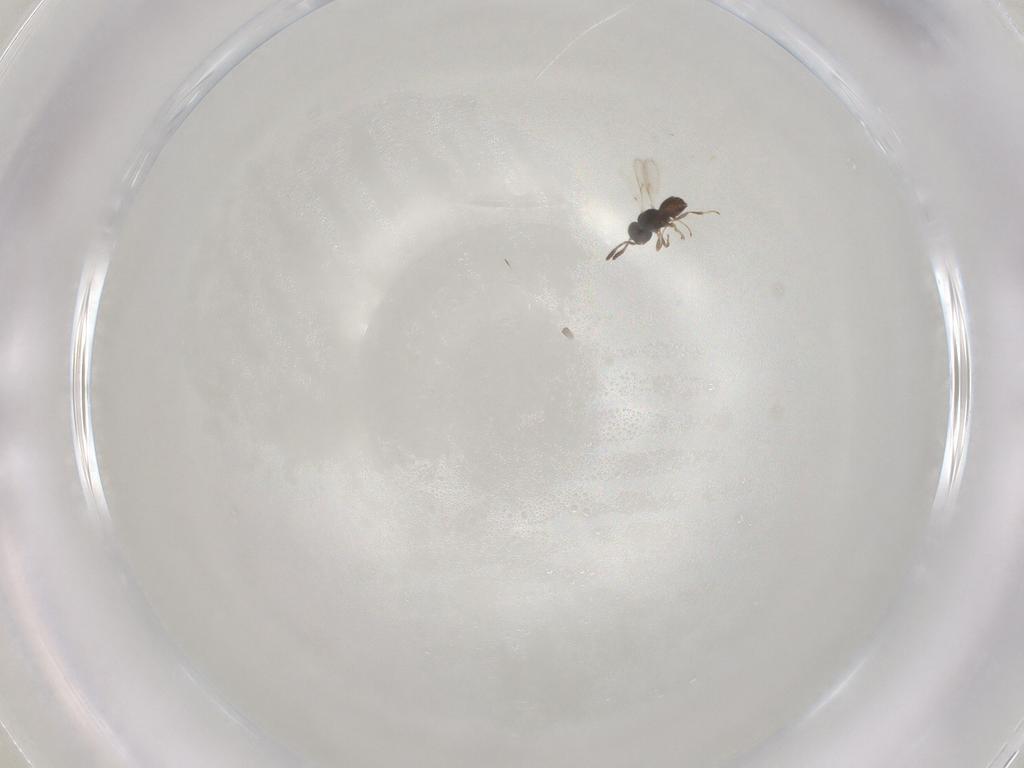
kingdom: Animalia
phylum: Arthropoda
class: Insecta
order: Hymenoptera
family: Scelionidae
